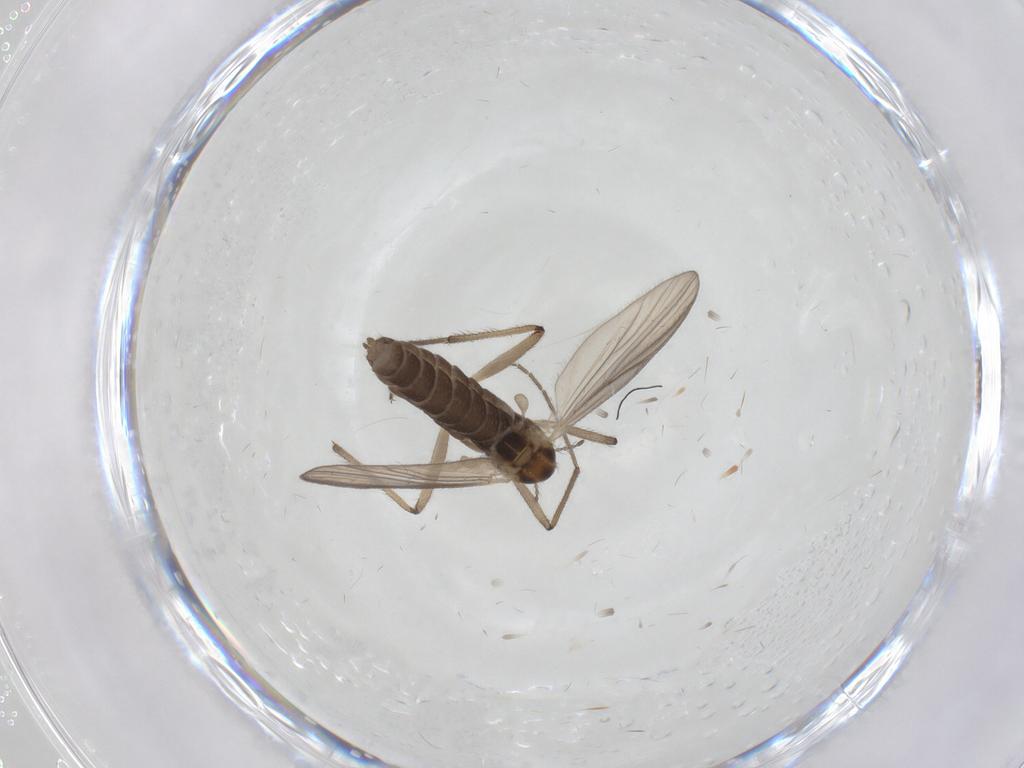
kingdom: Animalia
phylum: Arthropoda
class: Insecta
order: Diptera
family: Chironomidae
